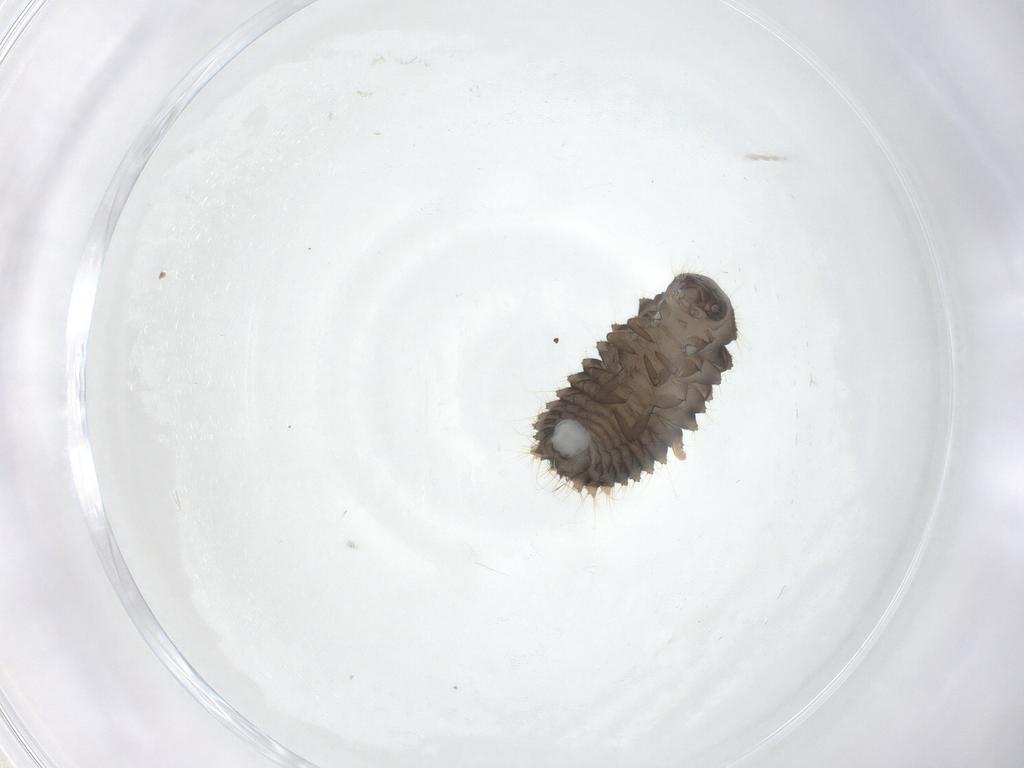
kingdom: Animalia
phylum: Arthropoda
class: Insecta
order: Coleoptera
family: Coccinellidae
